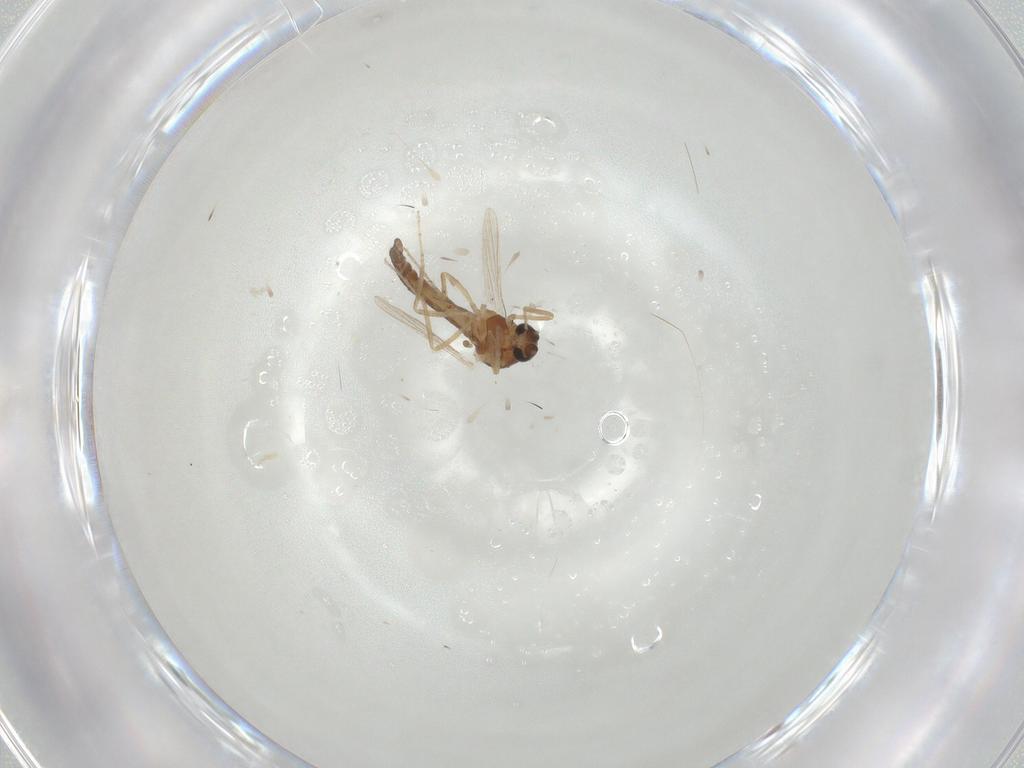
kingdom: Animalia
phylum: Arthropoda
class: Insecta
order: Diptera
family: Ceratopogonidae
